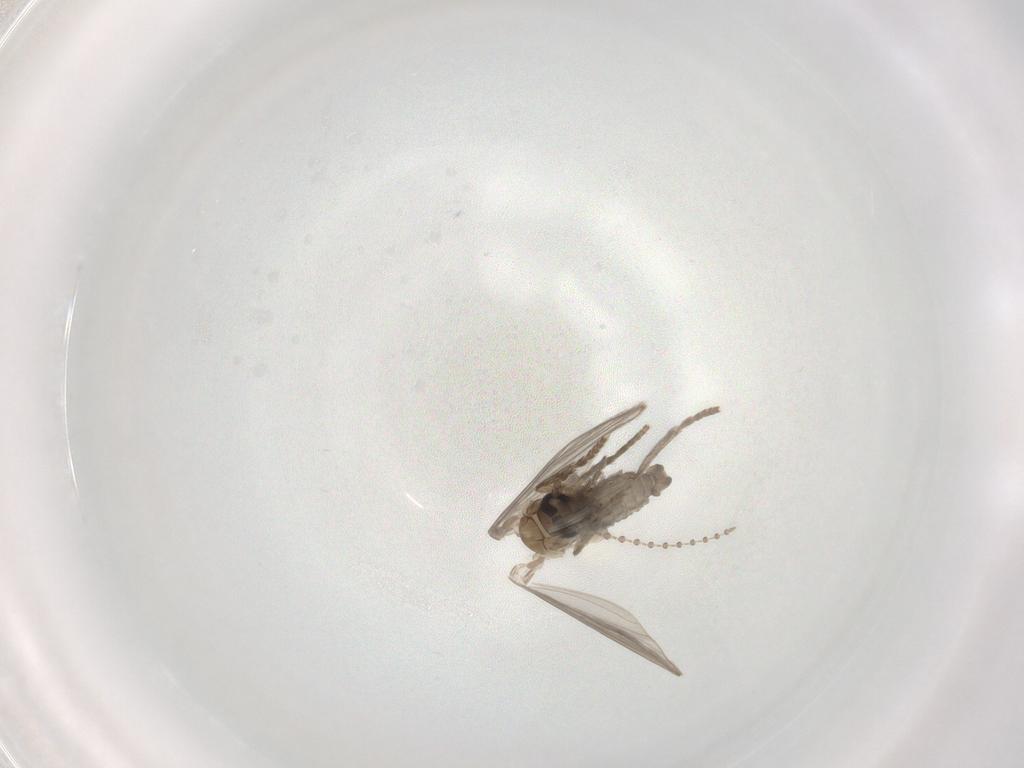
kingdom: Animalia
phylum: Arthropoda
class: Insecta
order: Diptera
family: Psychodidae
